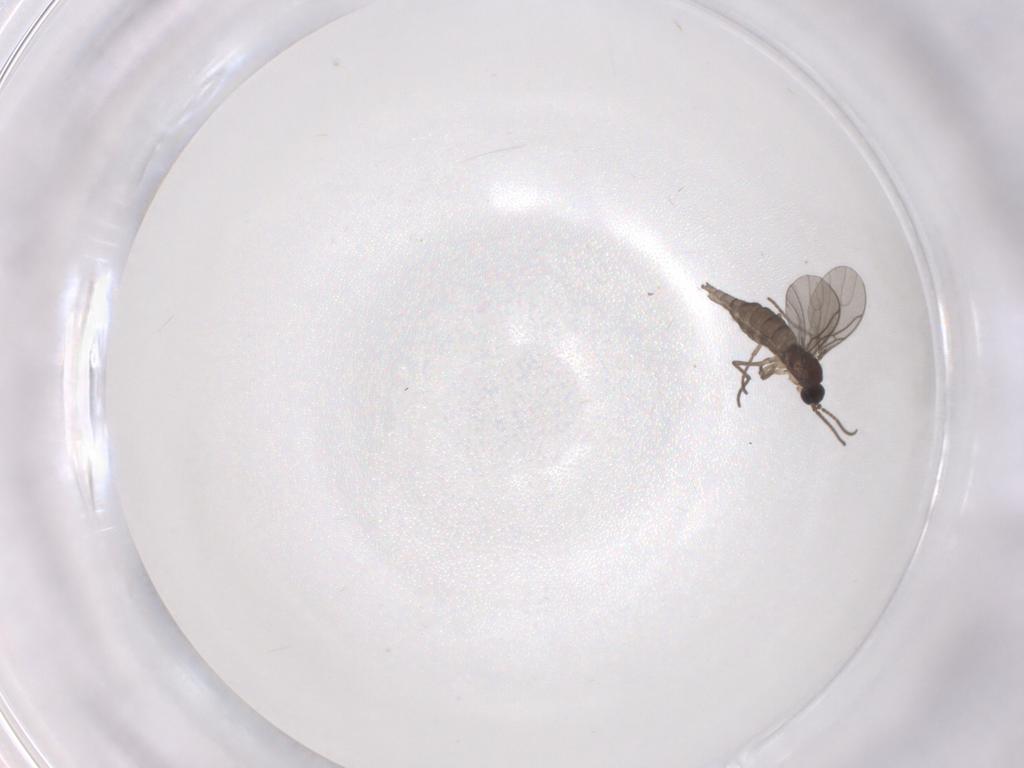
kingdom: Animalia
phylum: Arthropoda
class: Insecta
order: Diptera
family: Sciaridae
